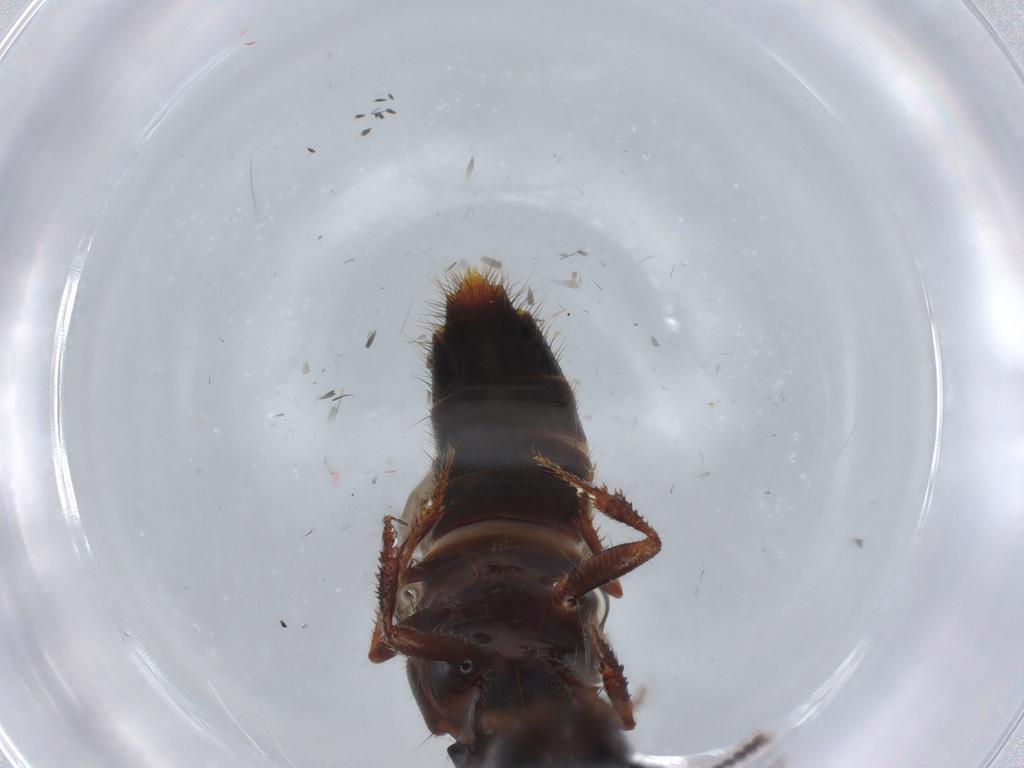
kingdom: Animalia
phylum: Arthropoda
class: Insecta
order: Coleoptera
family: Staphylinidae
